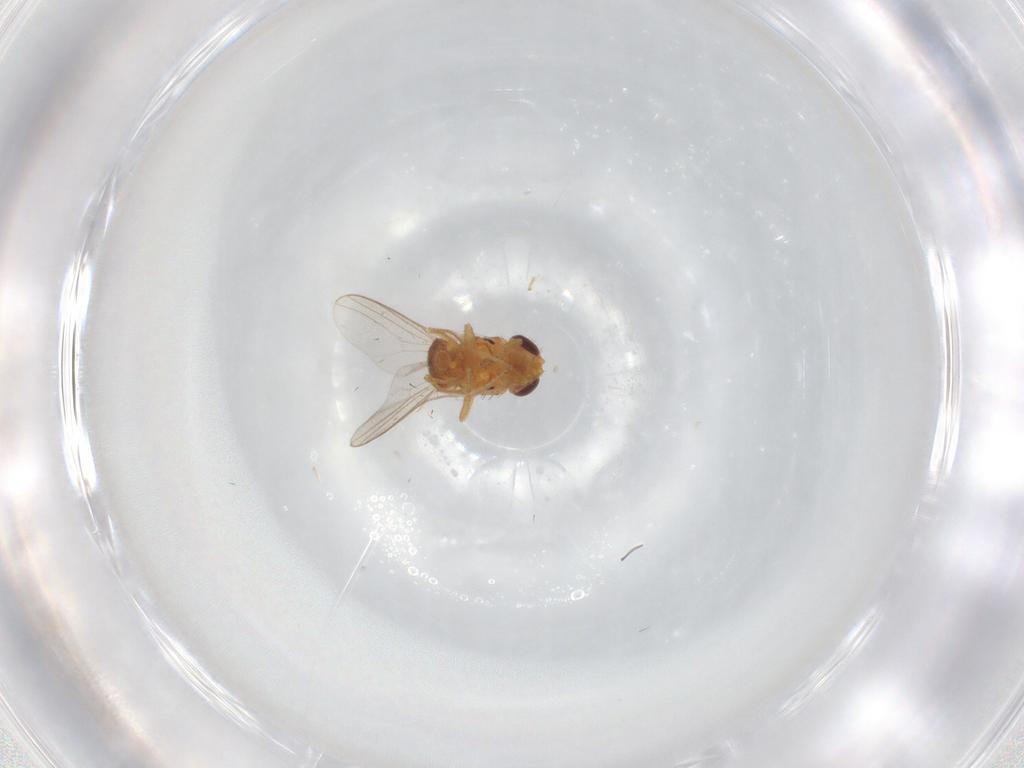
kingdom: Animalia
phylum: Arthropoda
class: Insecta
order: Diptera
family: Chloropidae
